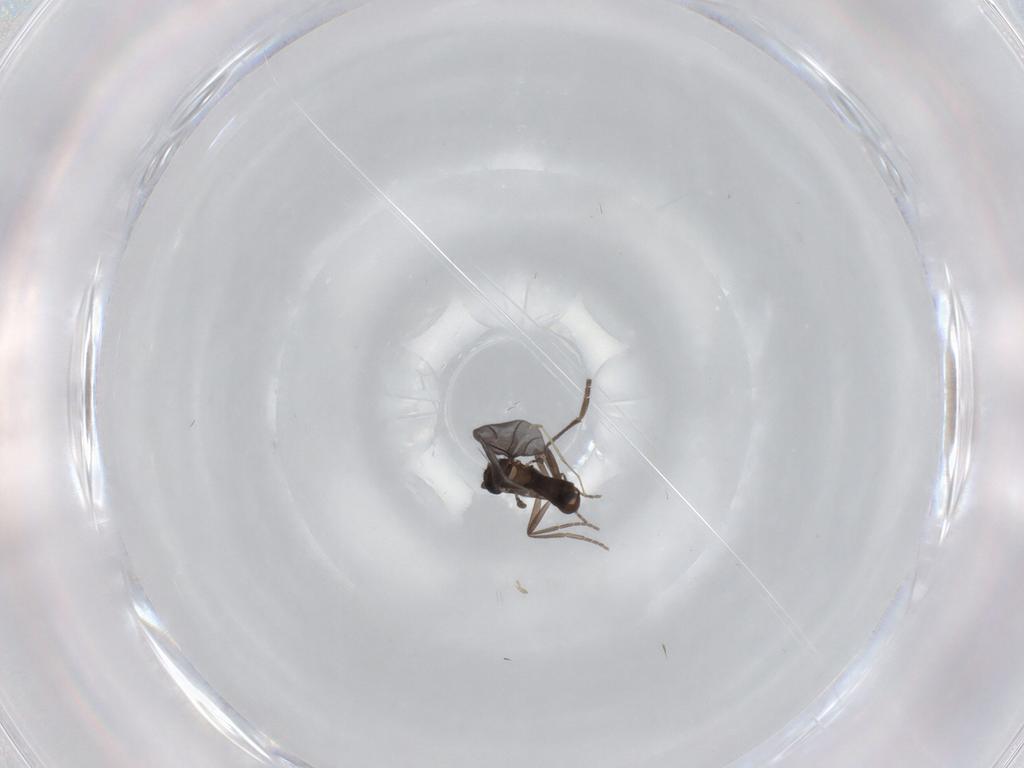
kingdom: Animalia
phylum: Arthropoda
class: Insecta
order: Diptera
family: Phoridae
